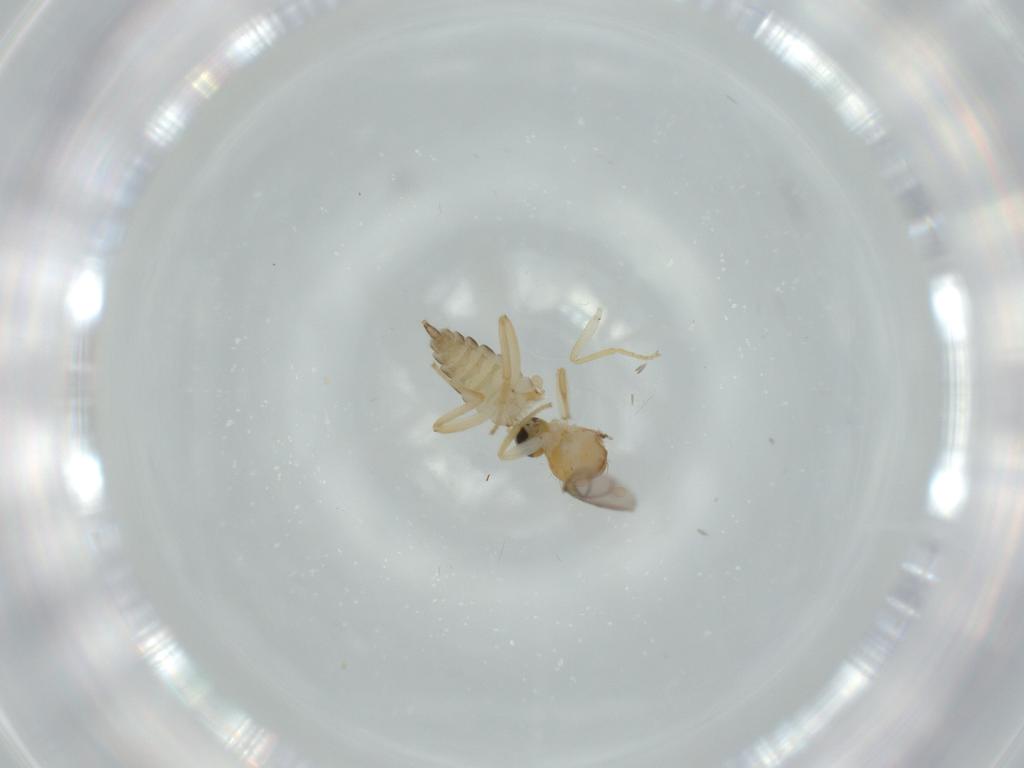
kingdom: Animalia
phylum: Arthropoda
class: Insecta
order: Diptera
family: Hybotidae
